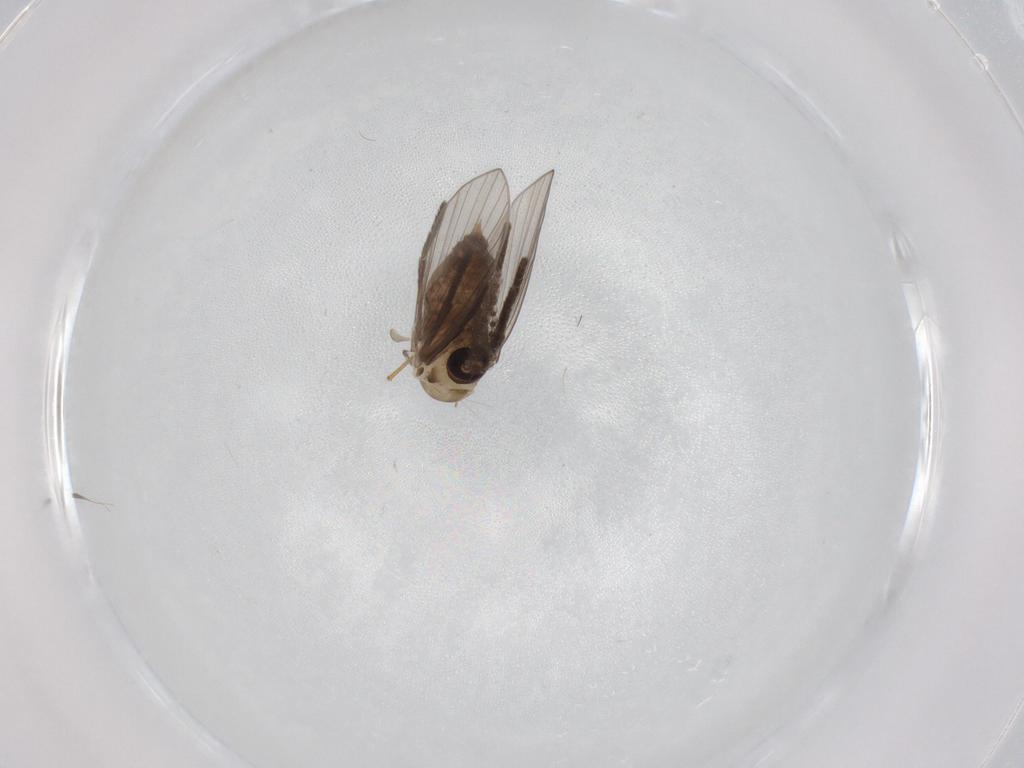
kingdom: Animalia
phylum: Arthropoda
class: Insecta
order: Diptera
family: Psychodidae
